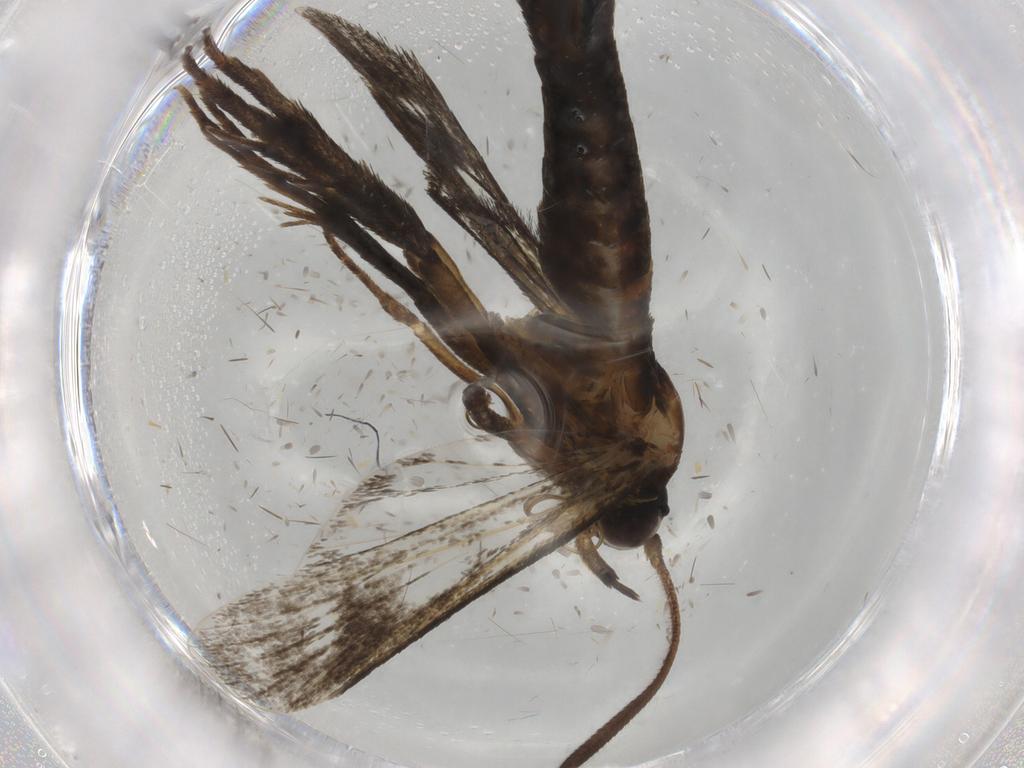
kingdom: Animalia
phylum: Arthropoda
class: Insecta
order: Lepidoptera
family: Sesiidae
